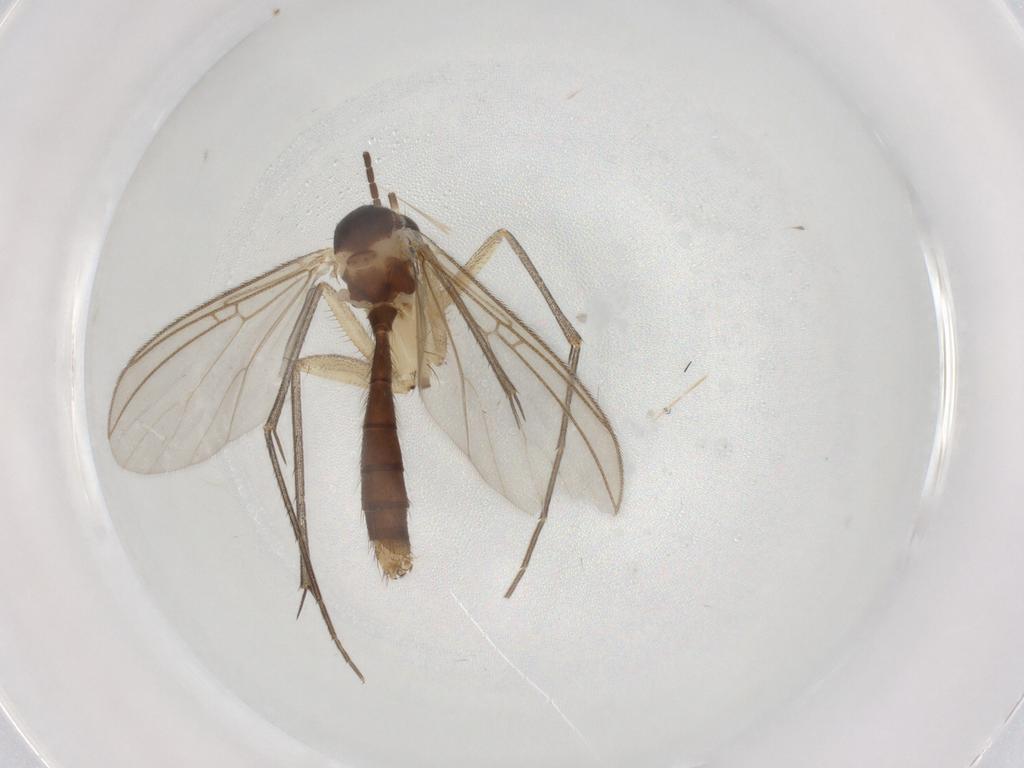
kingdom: Animalia
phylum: Arthropoda
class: Insecta
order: Diptera
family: Mycetophilidae
